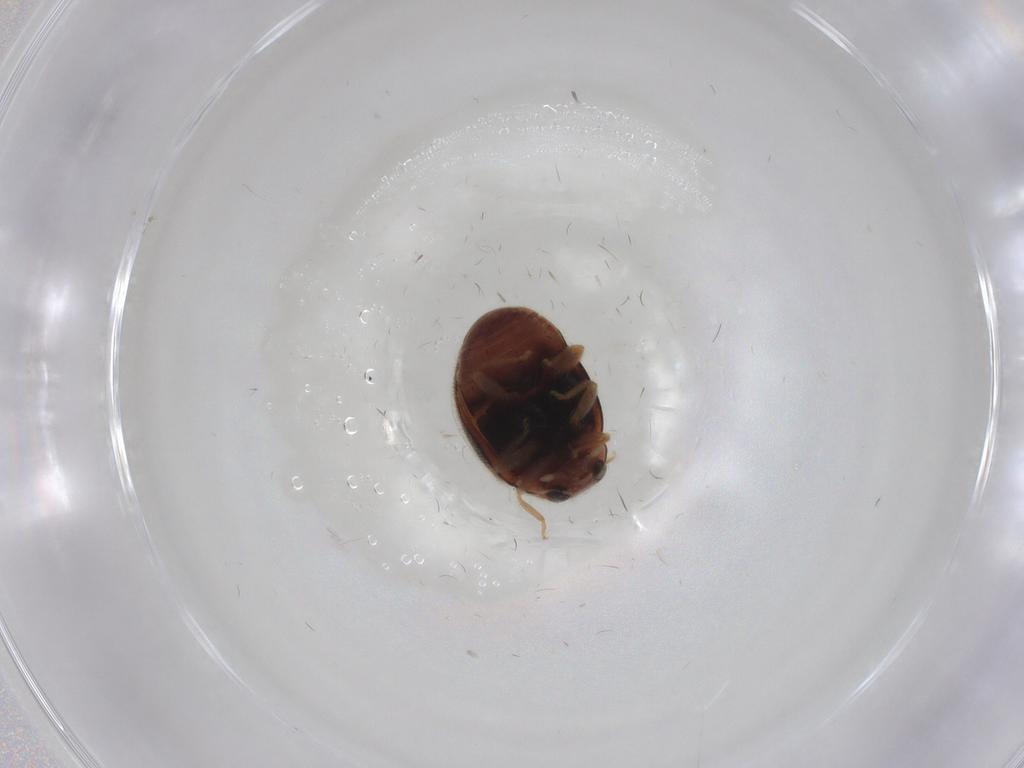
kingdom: Animalia
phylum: Arthropoda
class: Insecta
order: Coleoptera
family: Coccinellidae
